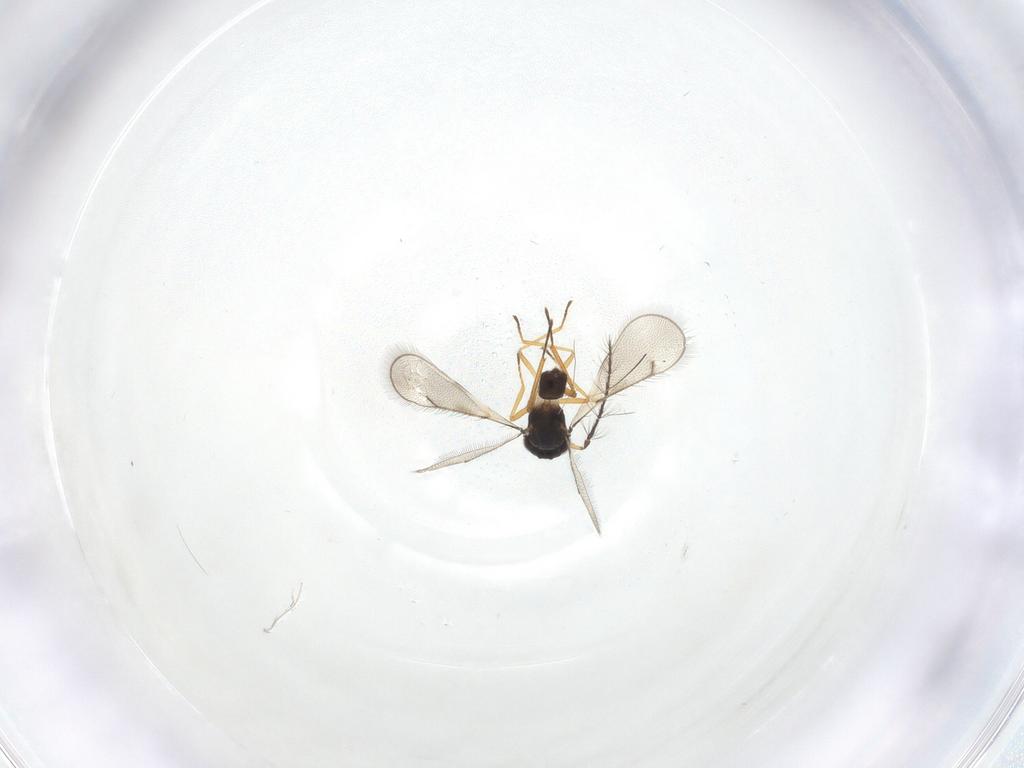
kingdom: Animalia
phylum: Arthropoda
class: Insecta
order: Hymenoptera
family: Eulophidae
